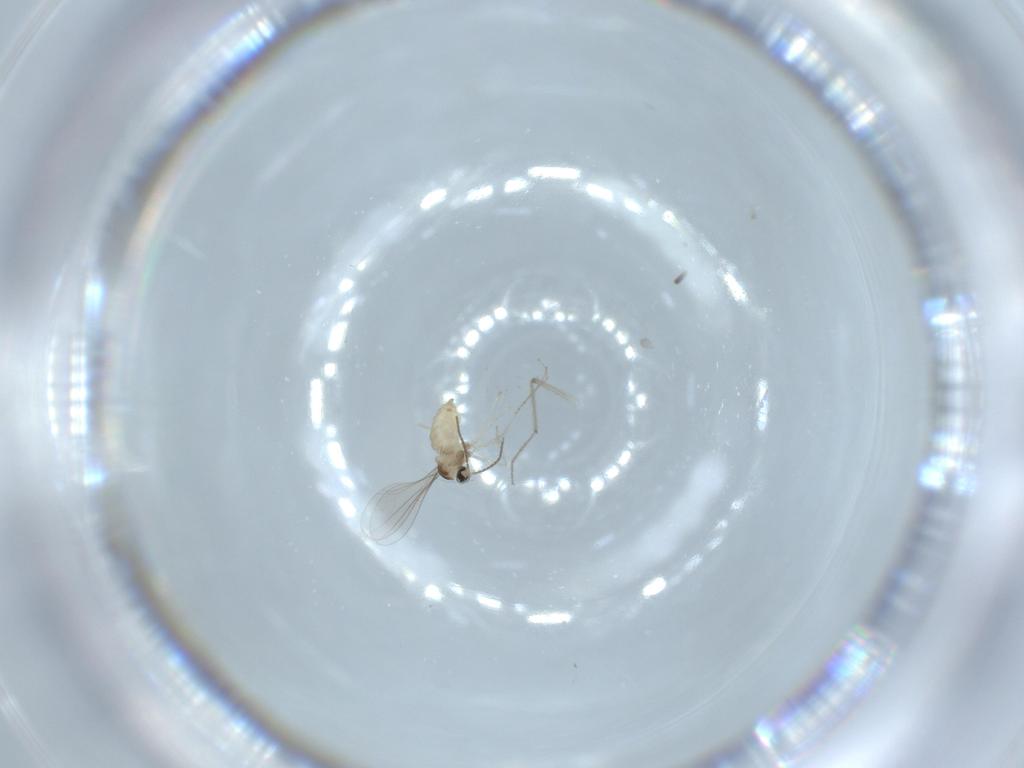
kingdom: Animalia
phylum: Arthropoda
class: Insecta
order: Diptera
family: Cecidomyiidae
